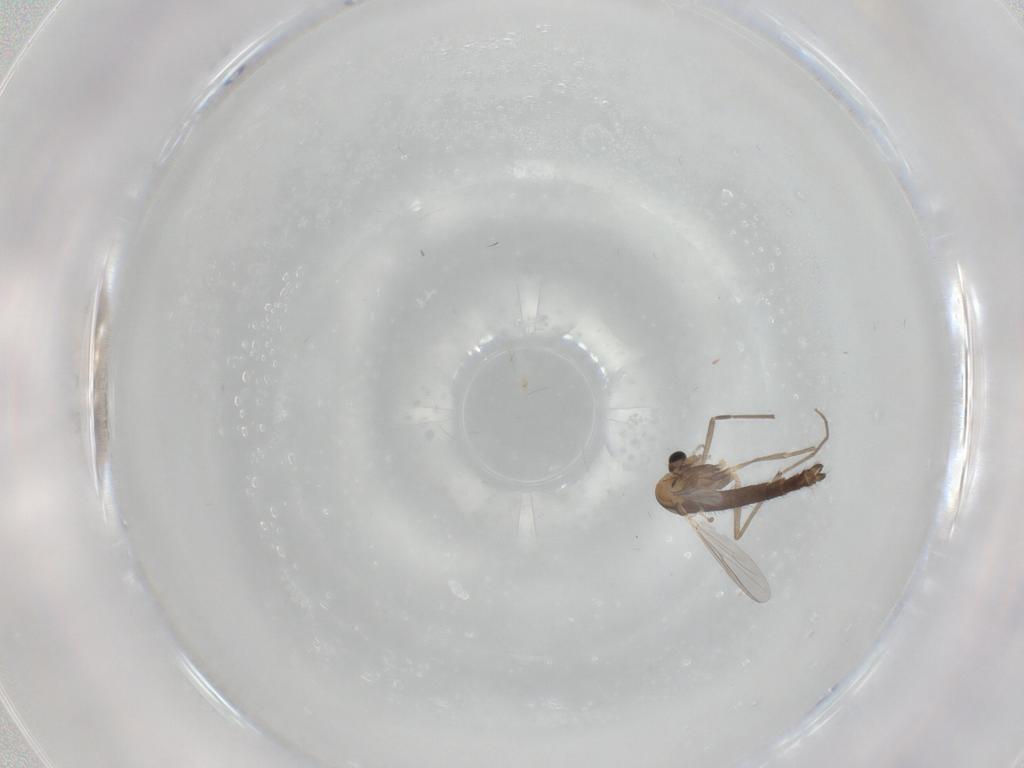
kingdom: Animalia
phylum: Arthropoda
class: Insecta
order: Diptera
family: Chironomidae
